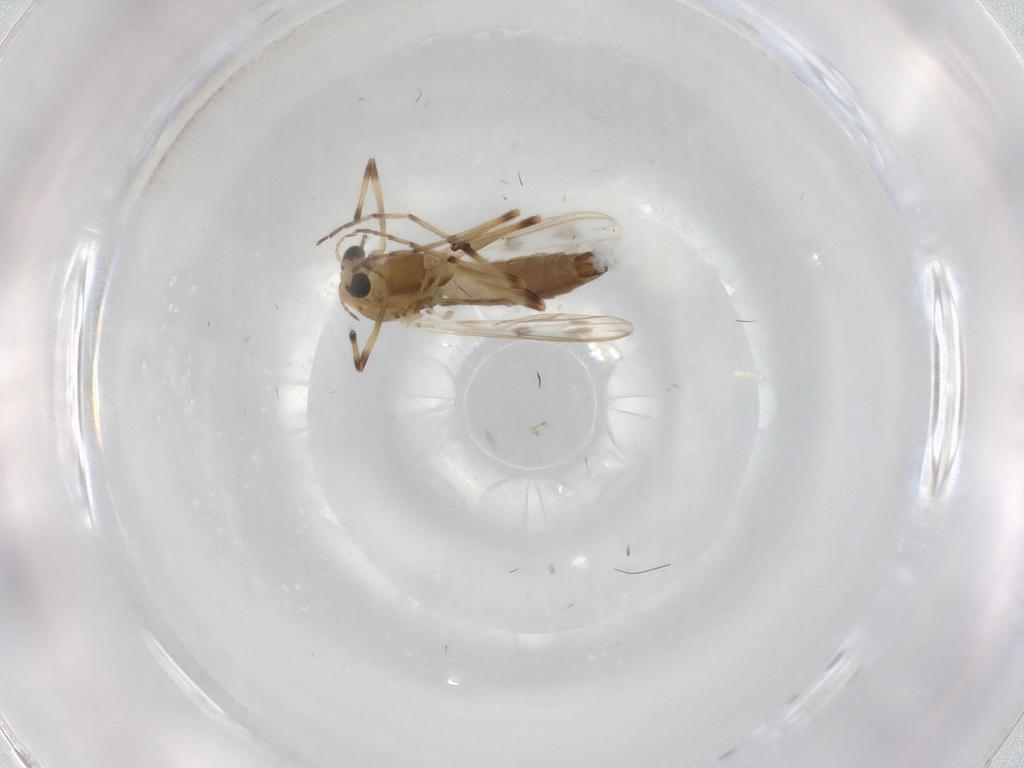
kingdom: Animalia
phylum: Arthropoda
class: Insecta
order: Diptera
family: Chironomidae
